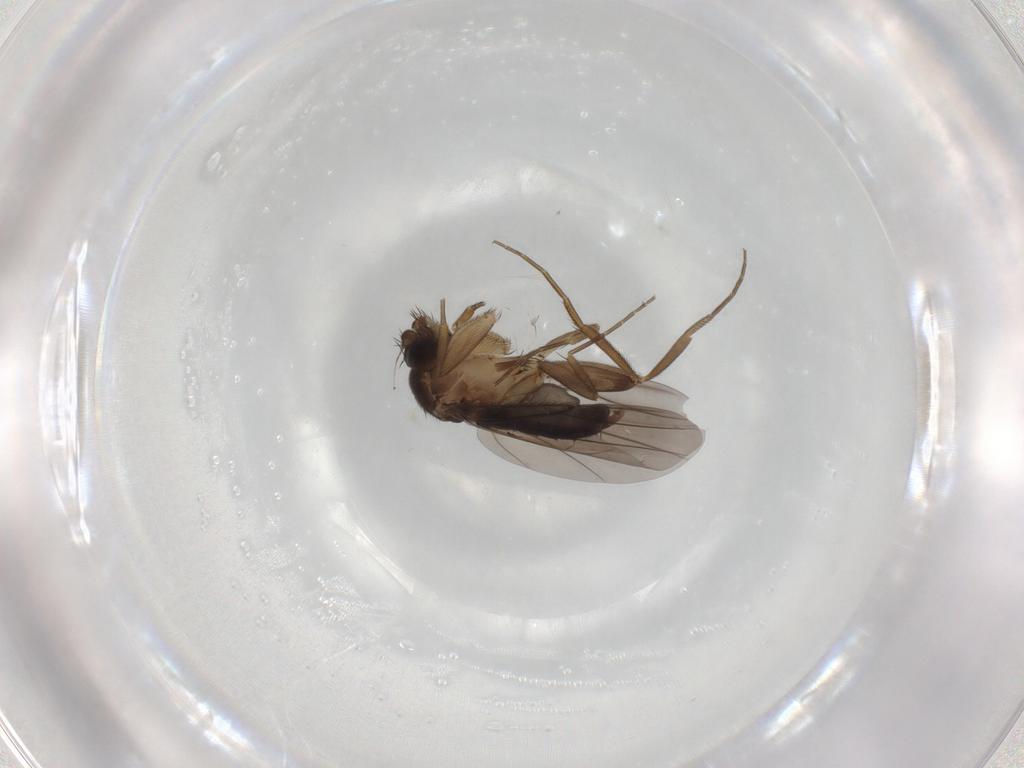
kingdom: Animalia
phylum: Arthropoda
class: Insecta
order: Diptera
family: Phoridae
